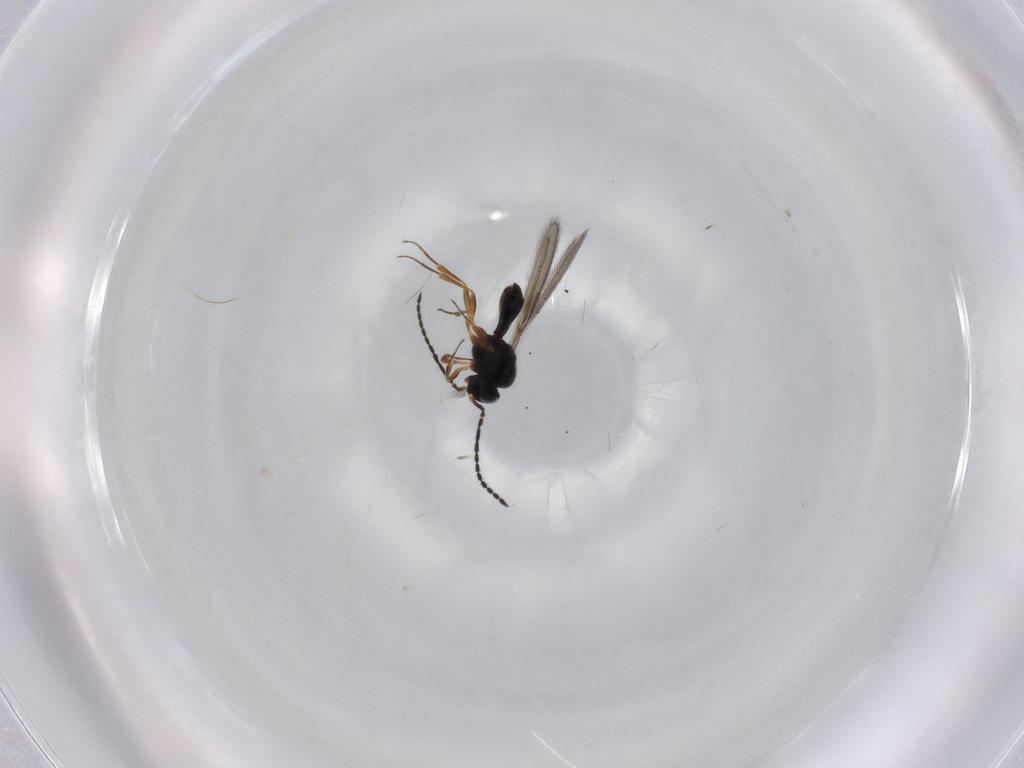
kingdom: Animalia
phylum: Arthropoda
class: Insecta
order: Hymenoptera
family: Scelionidae
